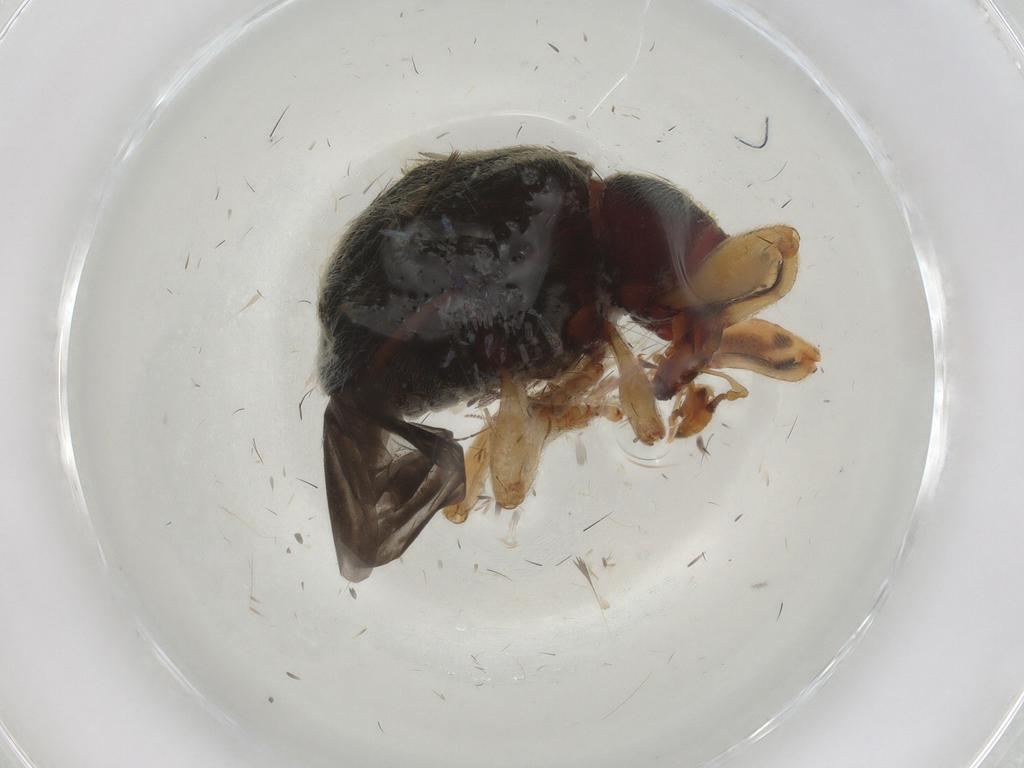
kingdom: Animalia
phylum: Arthropoda
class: Insecta
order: Coleoptera
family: Curculionidae
